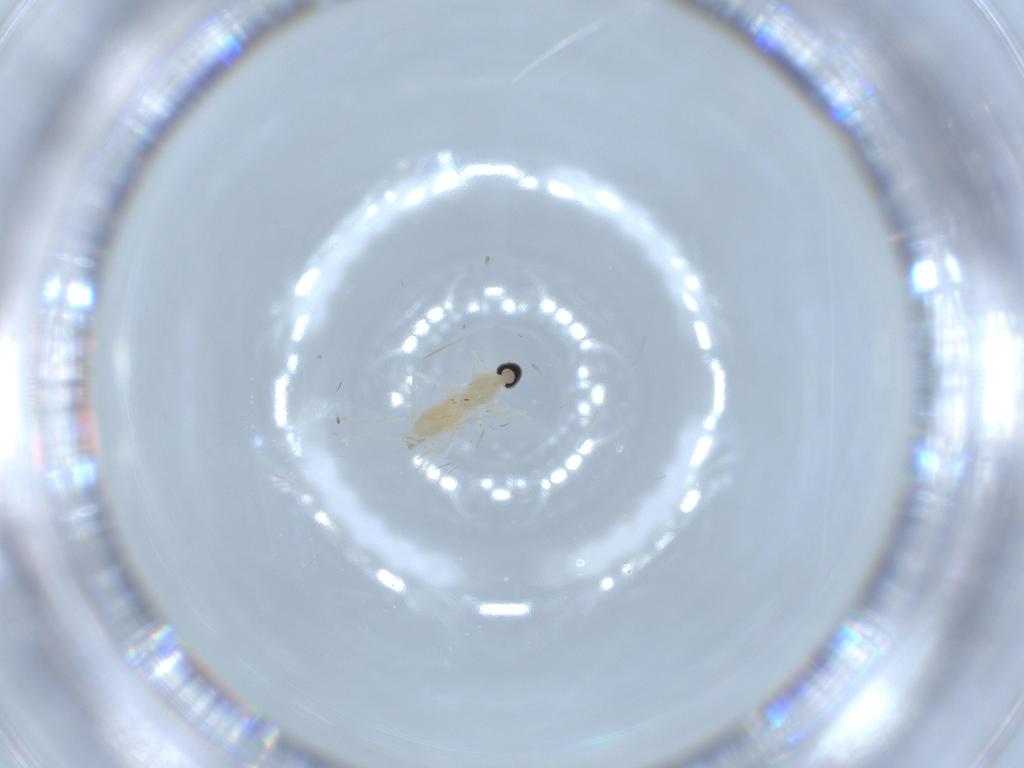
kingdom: Animalia
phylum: Arthropoda
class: Insecta
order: Diptera
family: Cecidomyiidae
